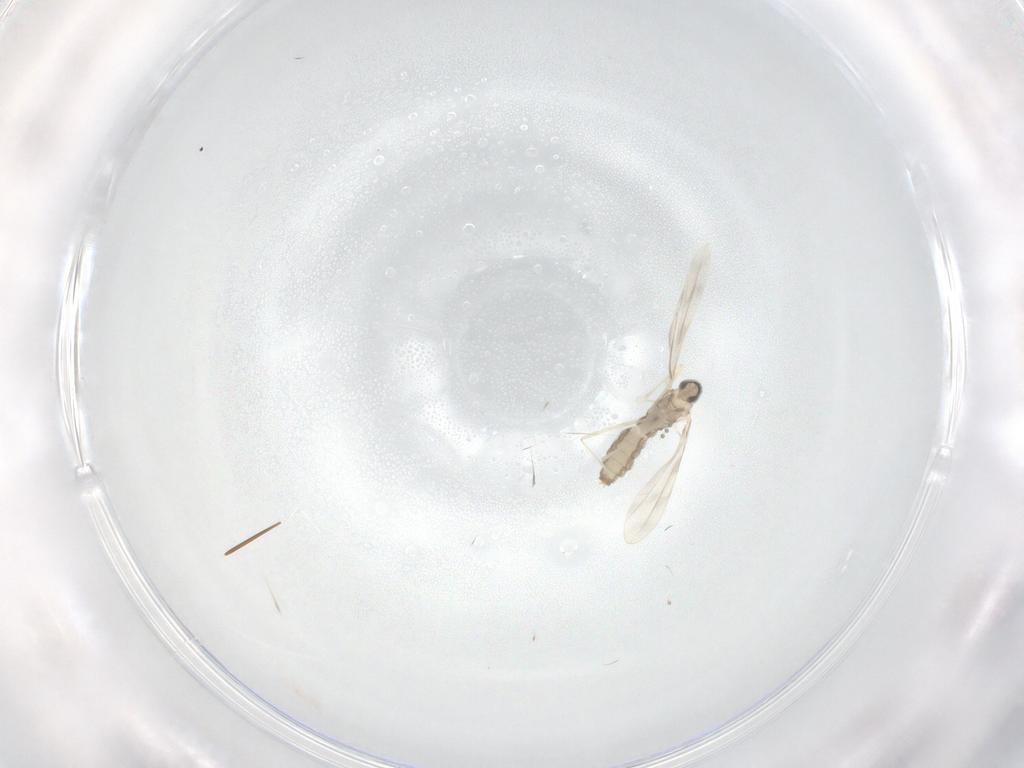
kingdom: Animalia
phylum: Arthropoda
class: Insecta
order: Diptera
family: Cecidomyiidae
